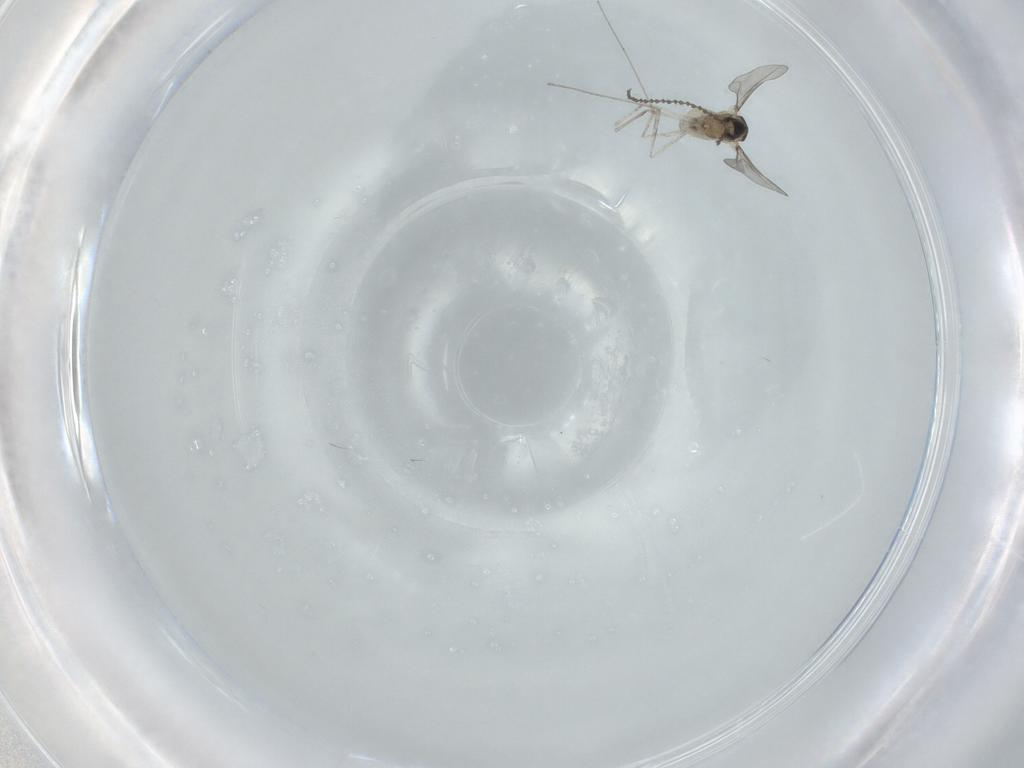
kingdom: Animalia
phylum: Arthropoda
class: Insecta
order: Diptera
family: Cecidomyiidae
